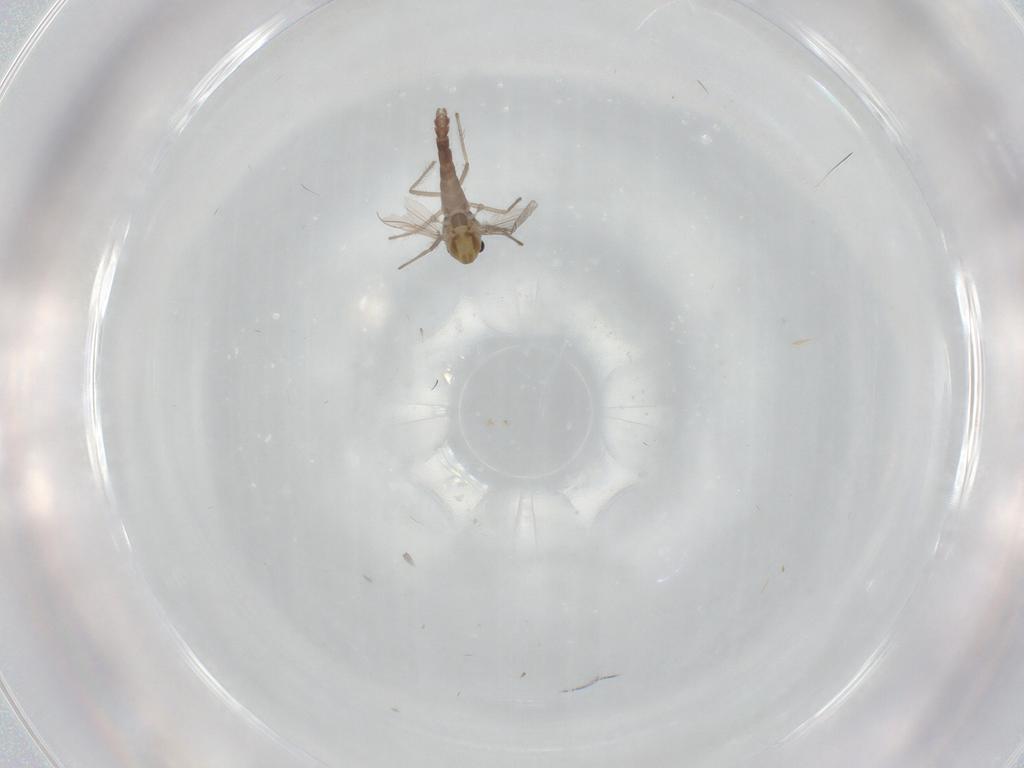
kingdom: Animalia
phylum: Arthropoda
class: Insecta
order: Diptera
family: Chironomidae
